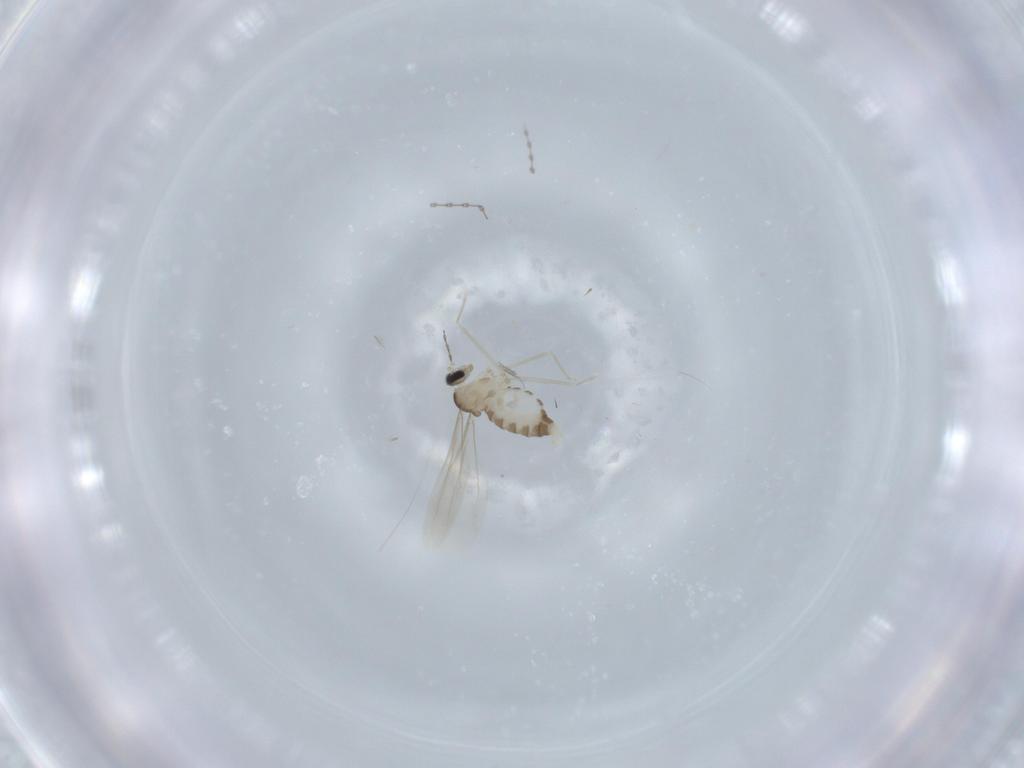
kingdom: Animalia
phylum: Arthropoda
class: Insecta
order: Diptera
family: Cecidomyiidae
